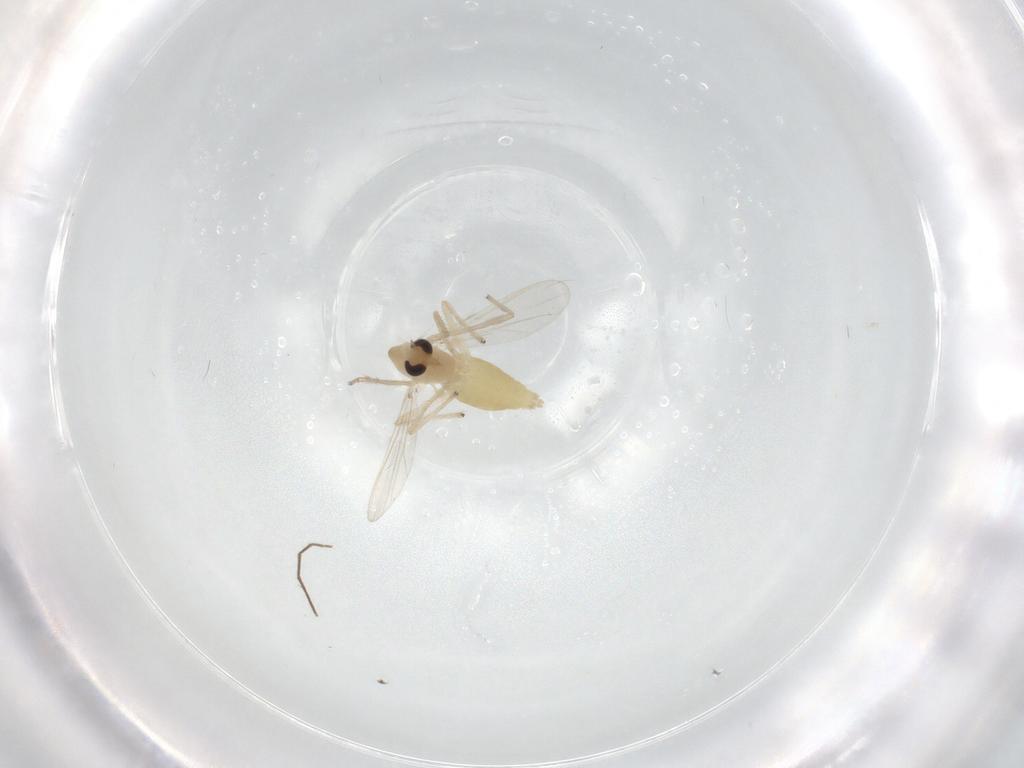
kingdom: Animalia
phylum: Arthropoda
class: Insecta
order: Diptera
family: Chironomidae
